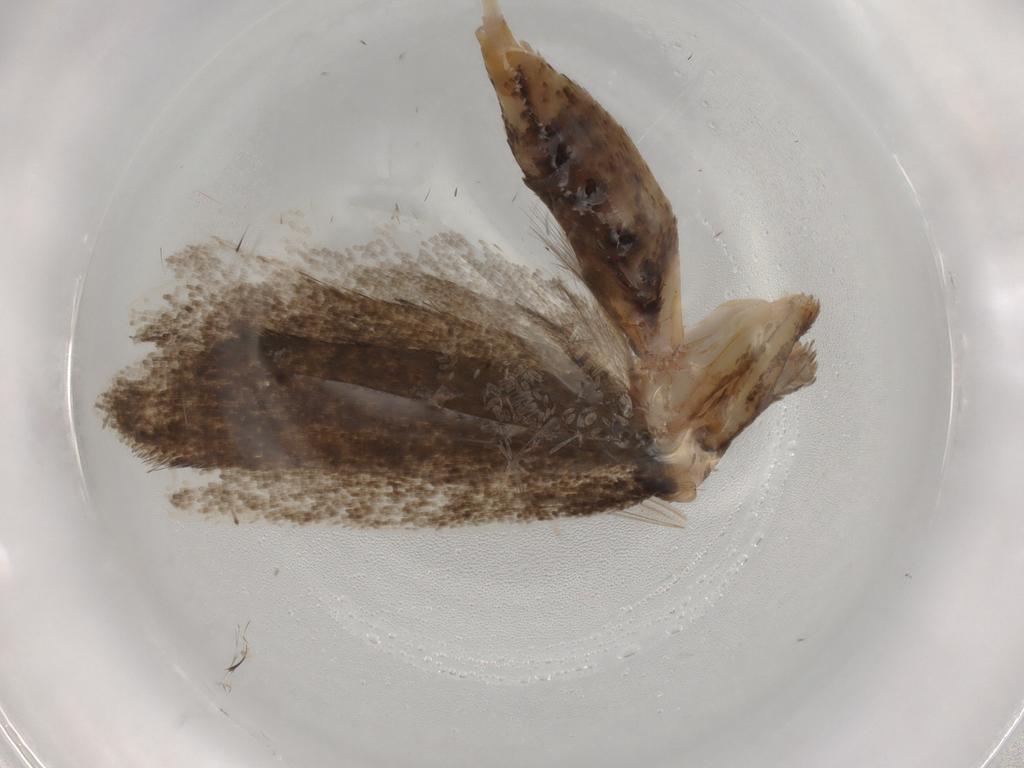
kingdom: Animalia
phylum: Arthropoda
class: Insecta
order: Lepidoptera
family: Lecithoceridae
